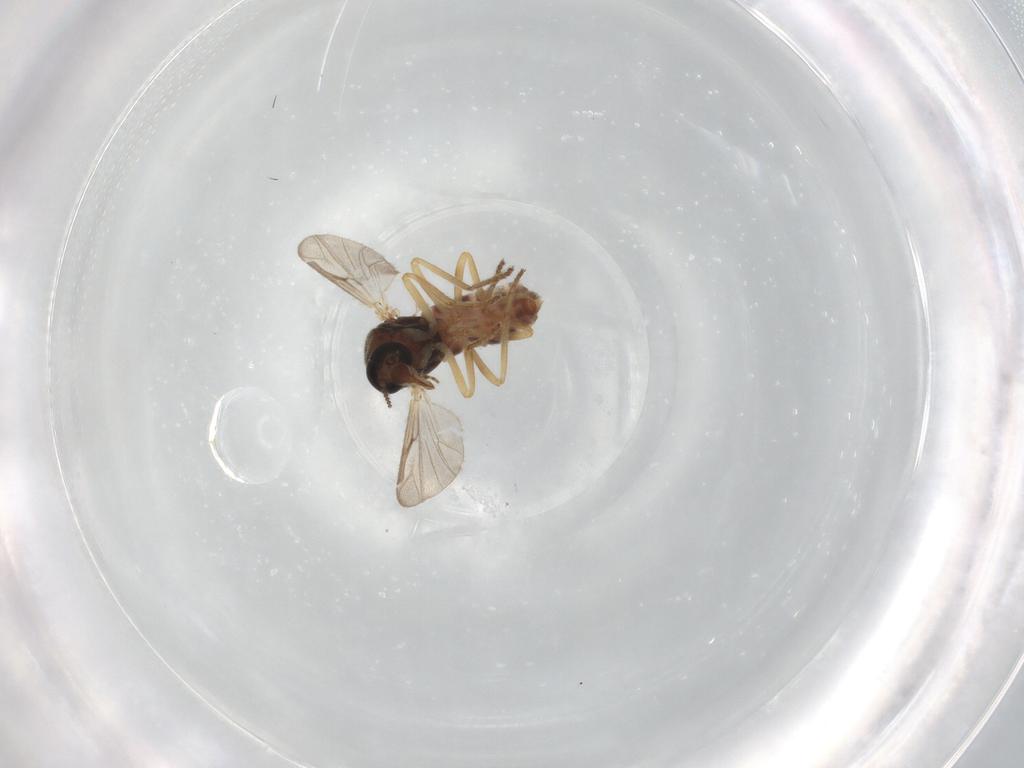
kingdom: Animalia
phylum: Arthropoda
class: Insecta
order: Diptera
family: Ceratopogonidae
